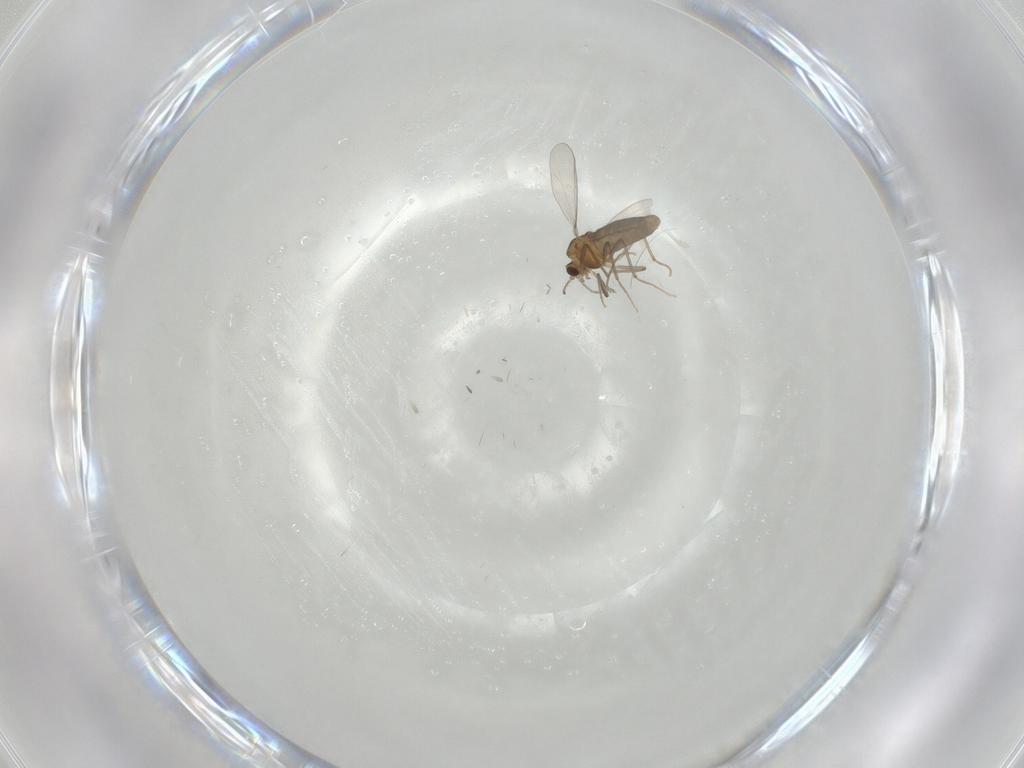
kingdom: Animalia
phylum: Arthropoda
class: Insecta
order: Diptera
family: Chironomidae
